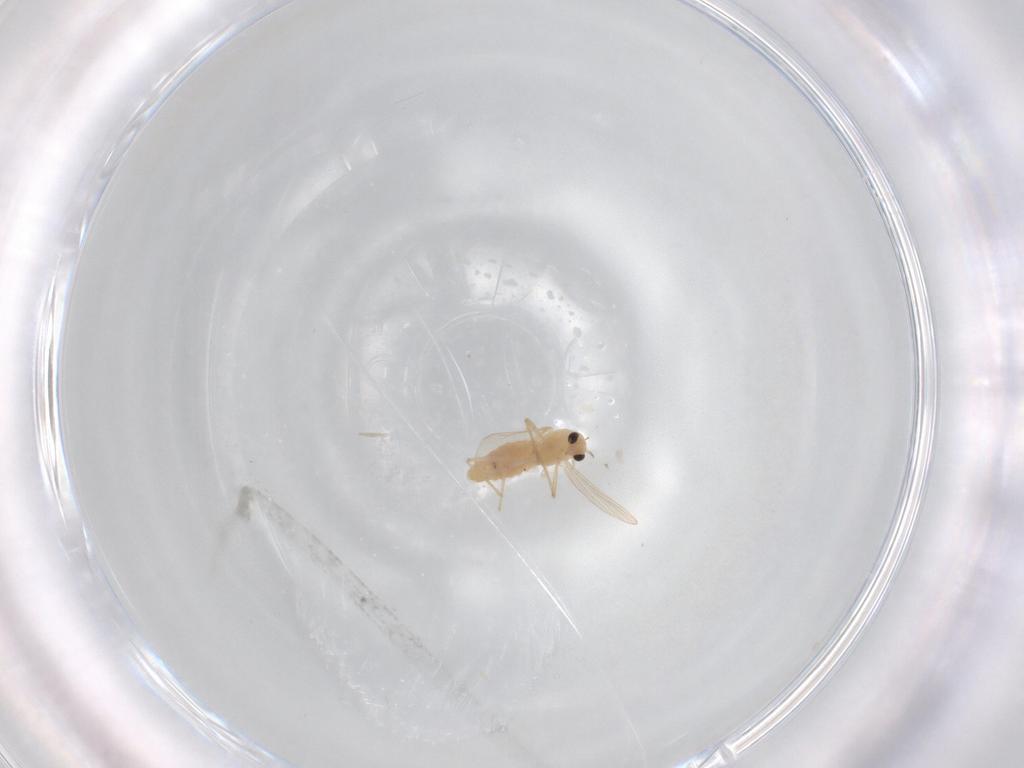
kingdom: Animalia
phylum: Arthropoda
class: Insecta
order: Diptera
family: Chironomidae
